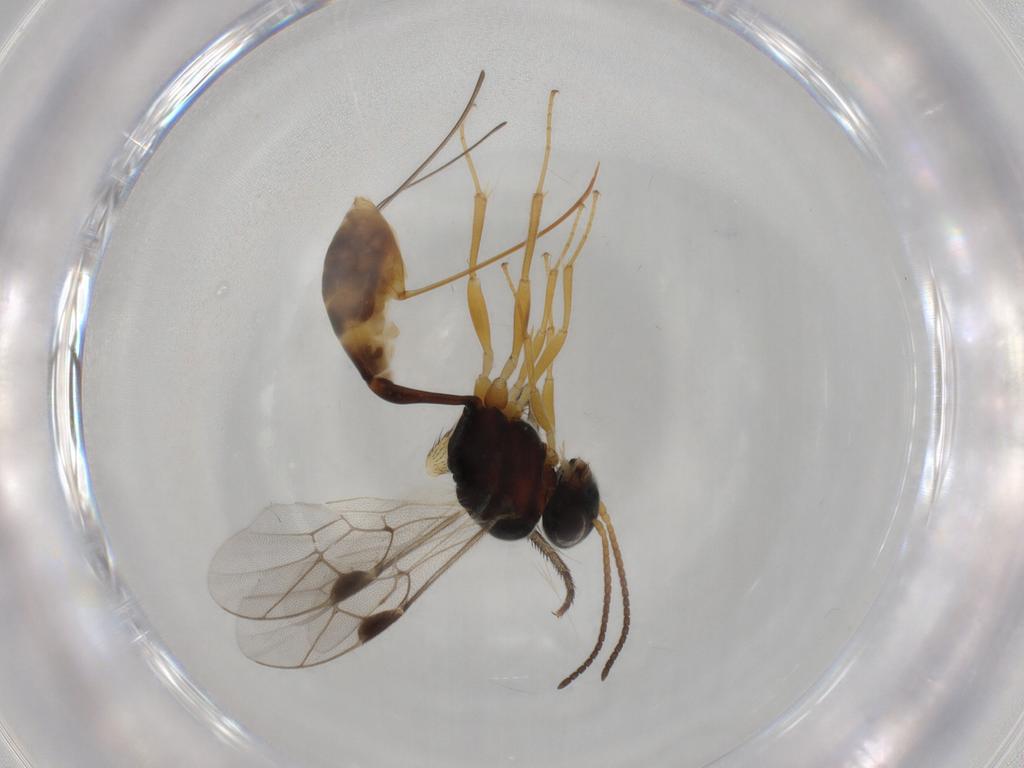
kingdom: Animalia
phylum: Arthropoda
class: Insecta
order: Hymenoptera
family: Ichneumonidae
